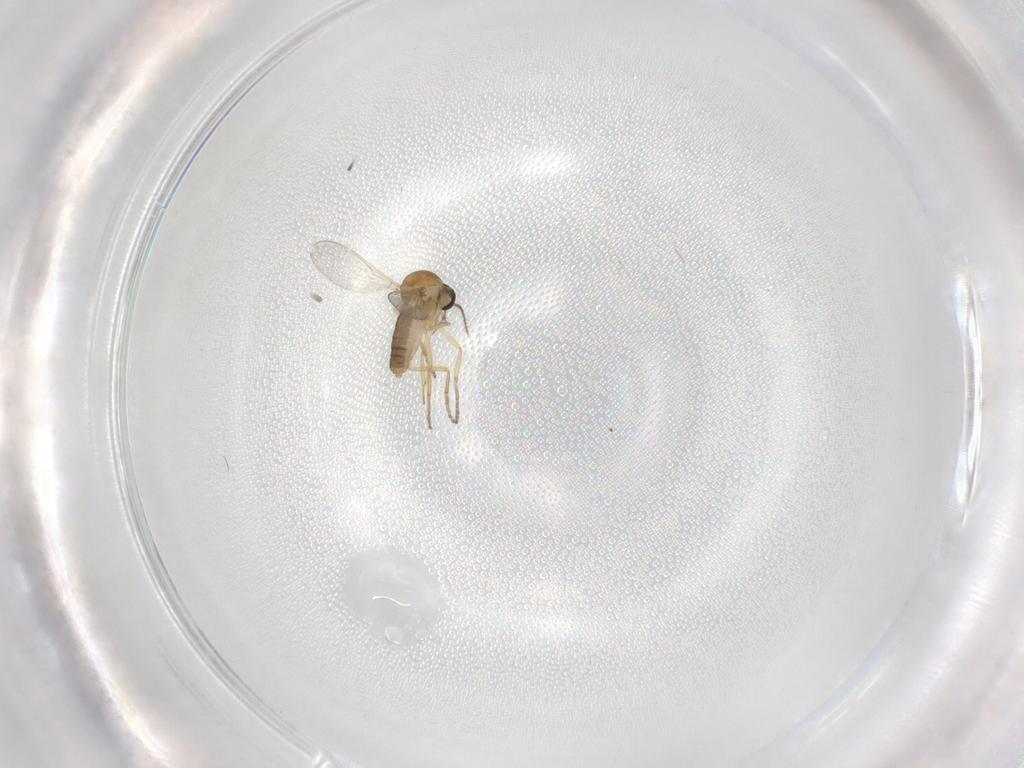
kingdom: Animalia
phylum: Arthropoda
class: Insecta
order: Diptera
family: Ceratopogonidae
